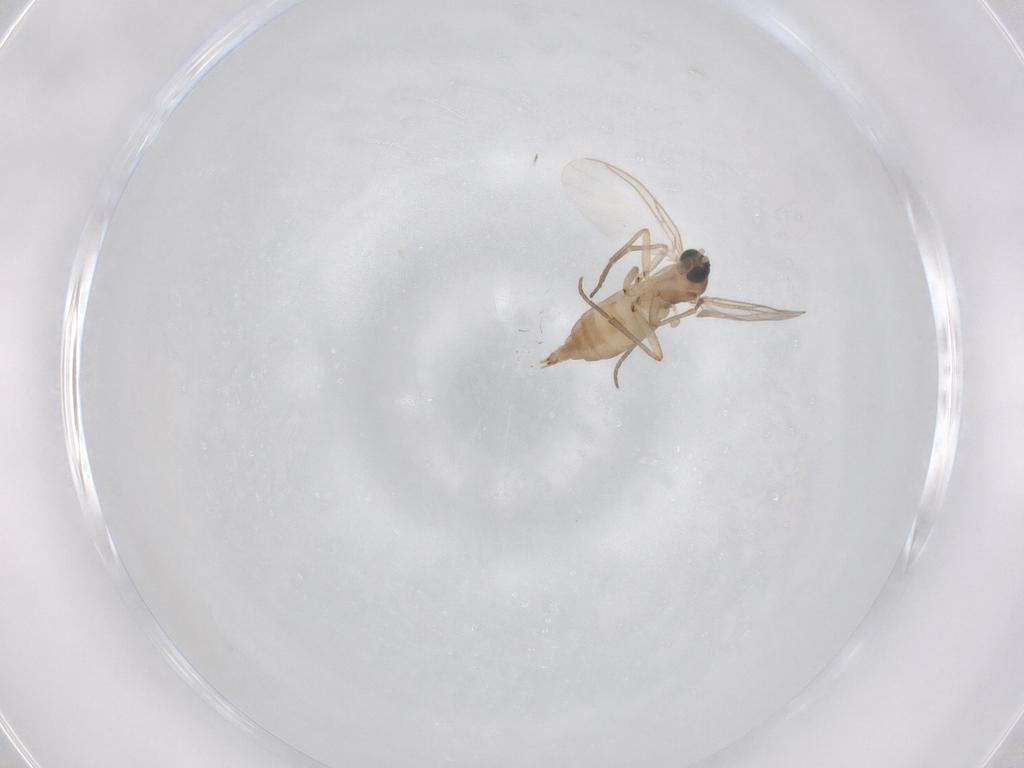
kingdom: Animalia
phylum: Arthropoda
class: Insecta
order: Diptera
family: Sciaridae
